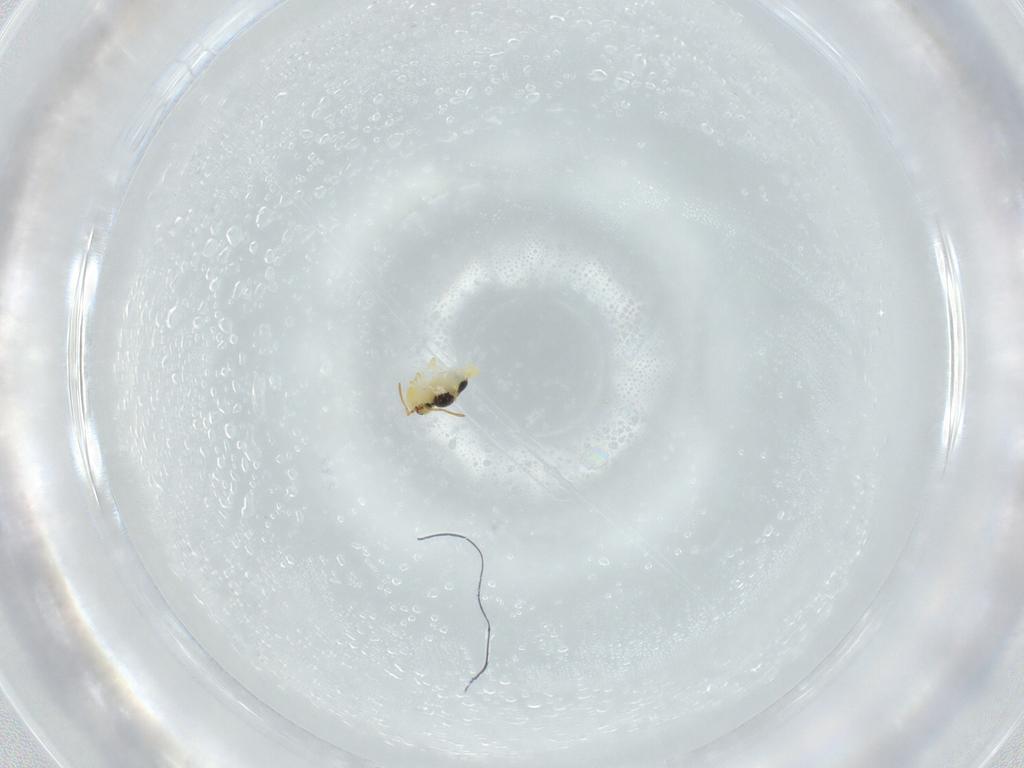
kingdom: Animalia
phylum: Arthropoda
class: Collembola
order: Symphypleona
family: Bourletiellidae
